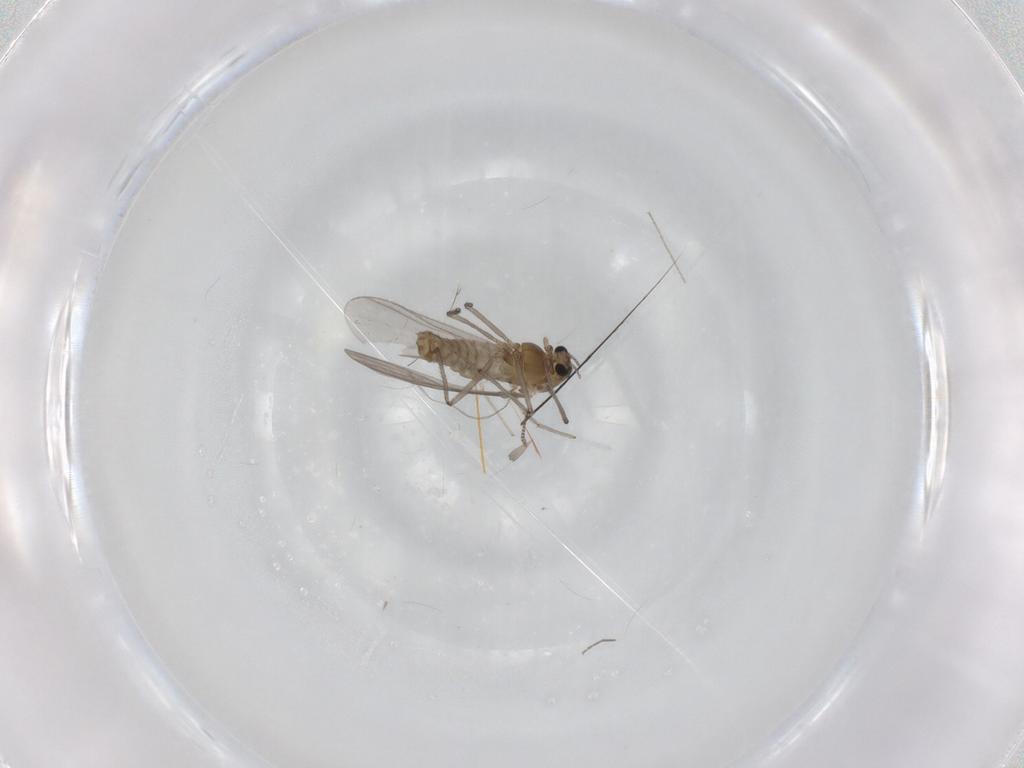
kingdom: Animalia
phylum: Arthropoda
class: Insecta
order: Diptera
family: Chironomidae
